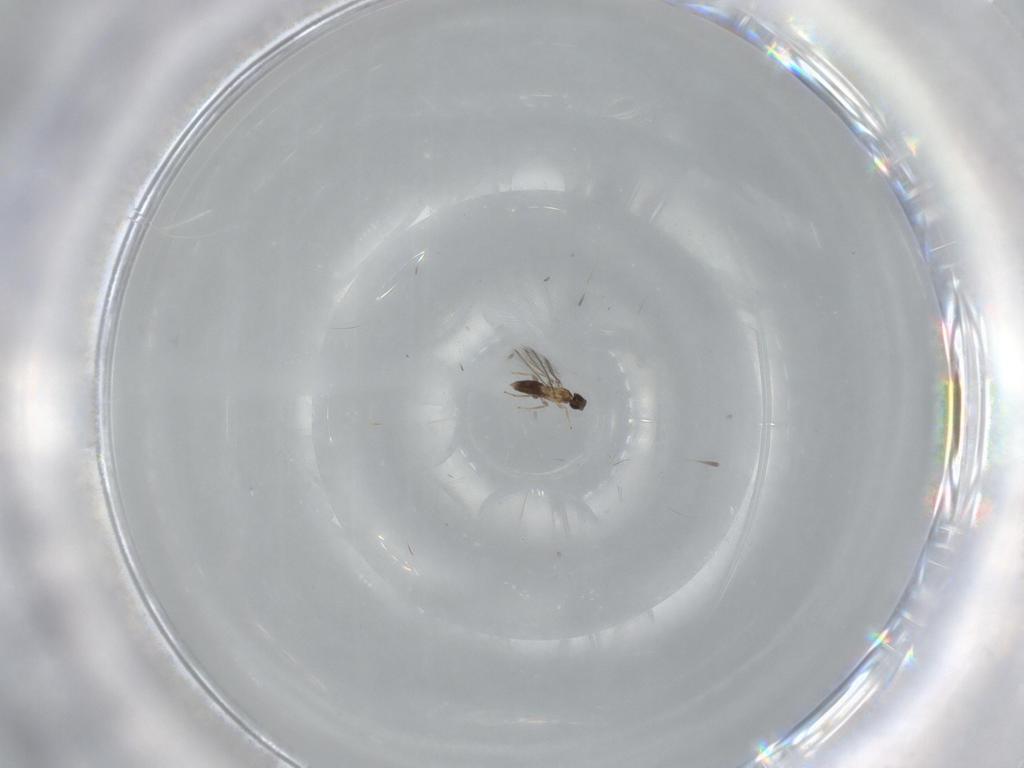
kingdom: Animalia
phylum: Arthropoda
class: Insecta
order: Hymenoptera
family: Mymaridae
